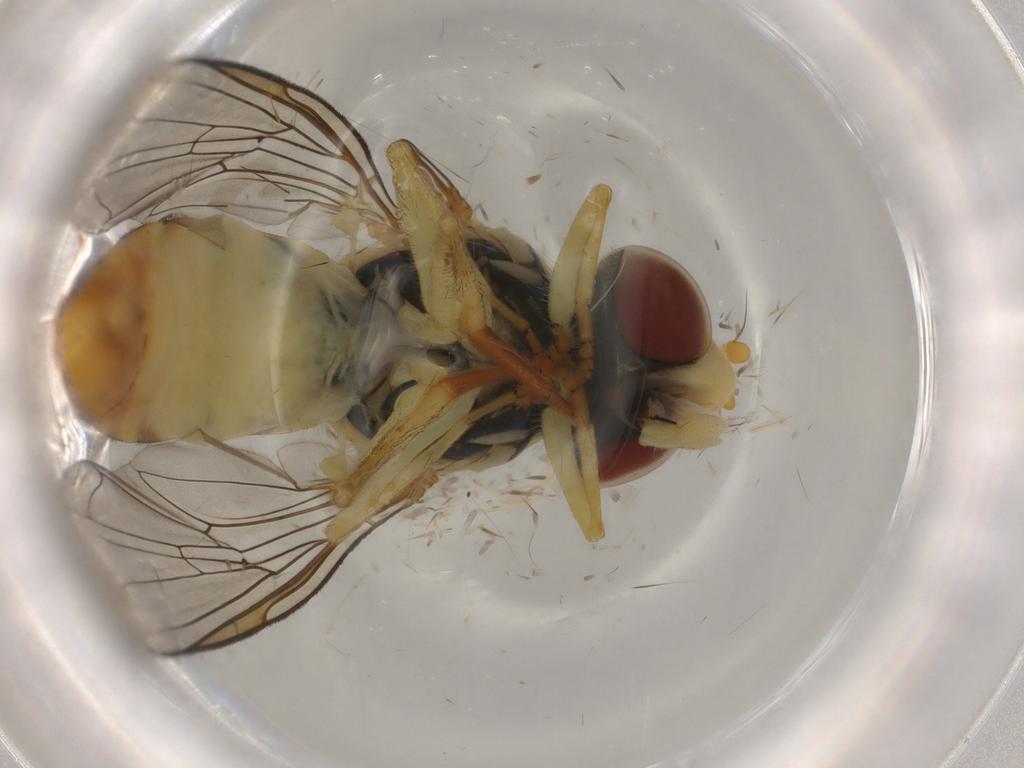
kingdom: Animalia
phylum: Arthropoda
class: Insecta
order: Diptera
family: Syrphidae
